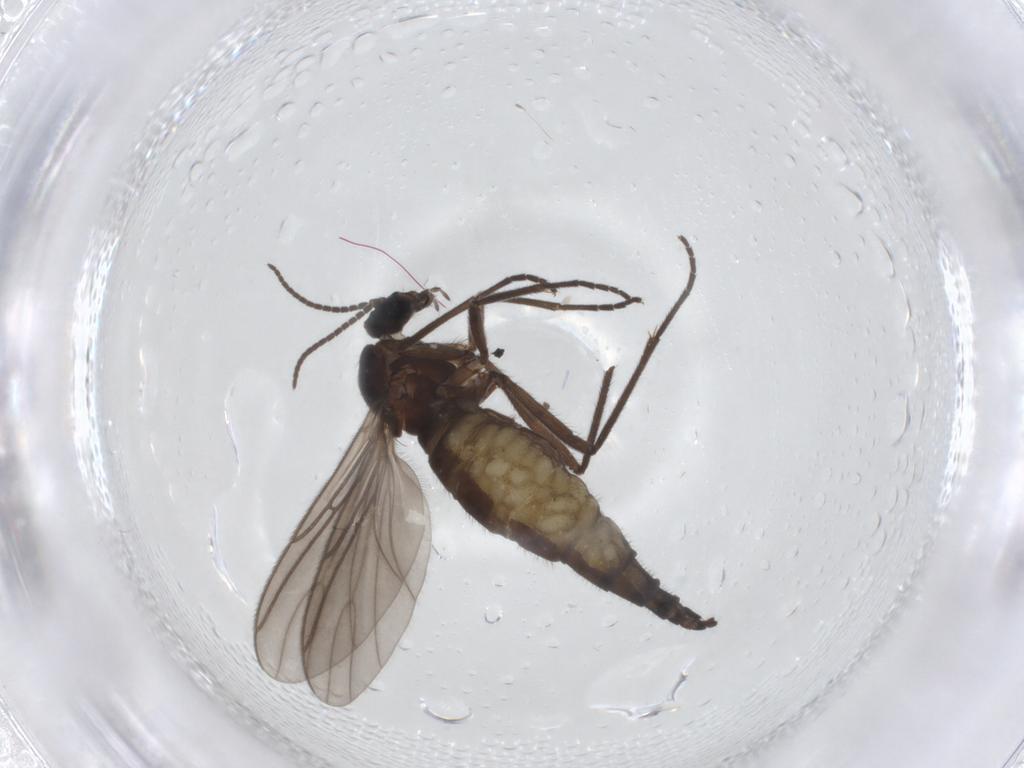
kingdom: Animalia
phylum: Arthropoda
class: Insecta
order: Diptera
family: Sciaridae
